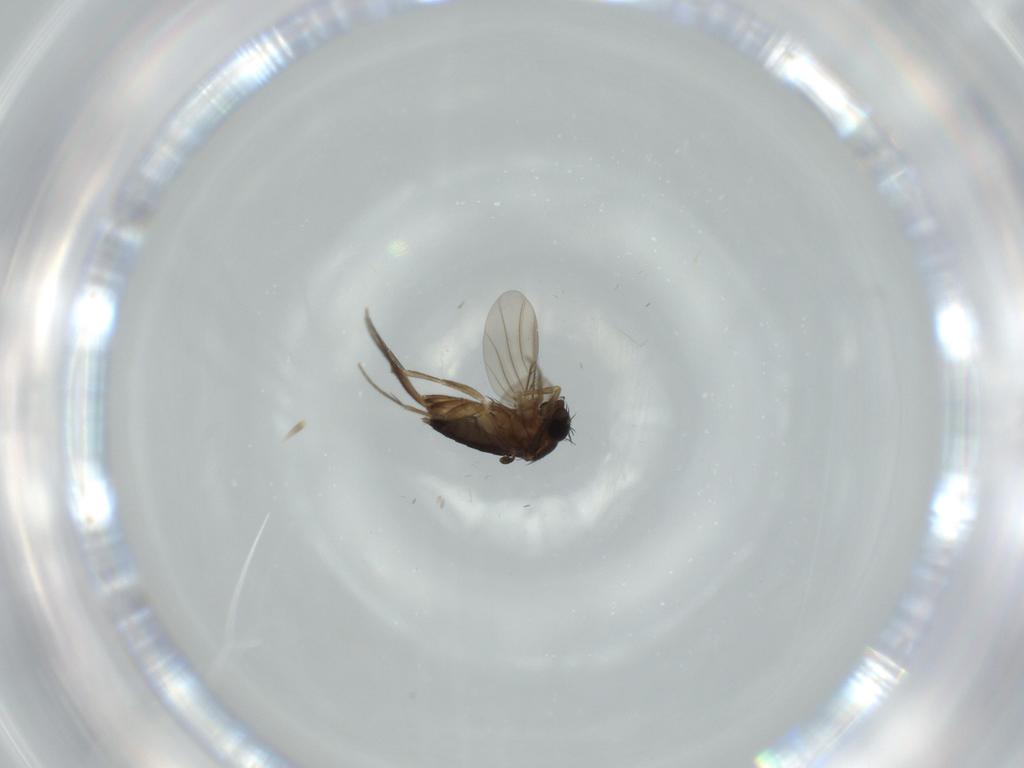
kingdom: Animalia
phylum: Arthropoda
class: Insecta
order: Diptera
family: Phoridae
